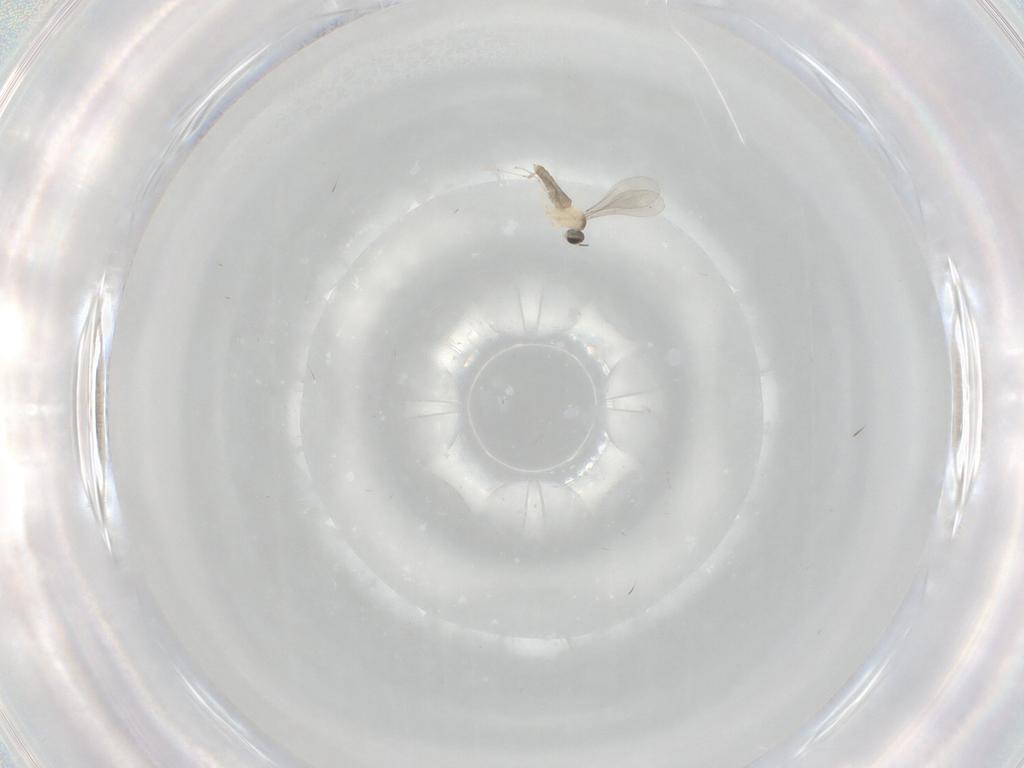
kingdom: Animalia
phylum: Arthropoda
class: Insecta
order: Diptera
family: Cecidomyiidae
